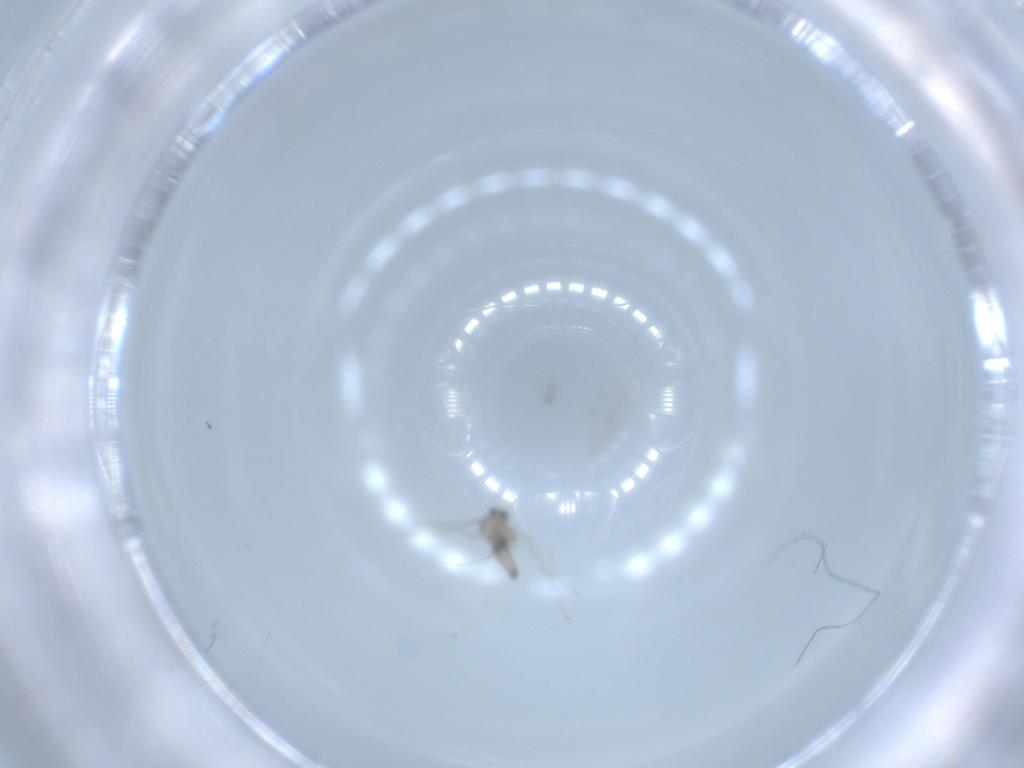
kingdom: Animalia
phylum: Arthropoda
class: Insecta
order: Diptera
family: Cecidomyiidae
